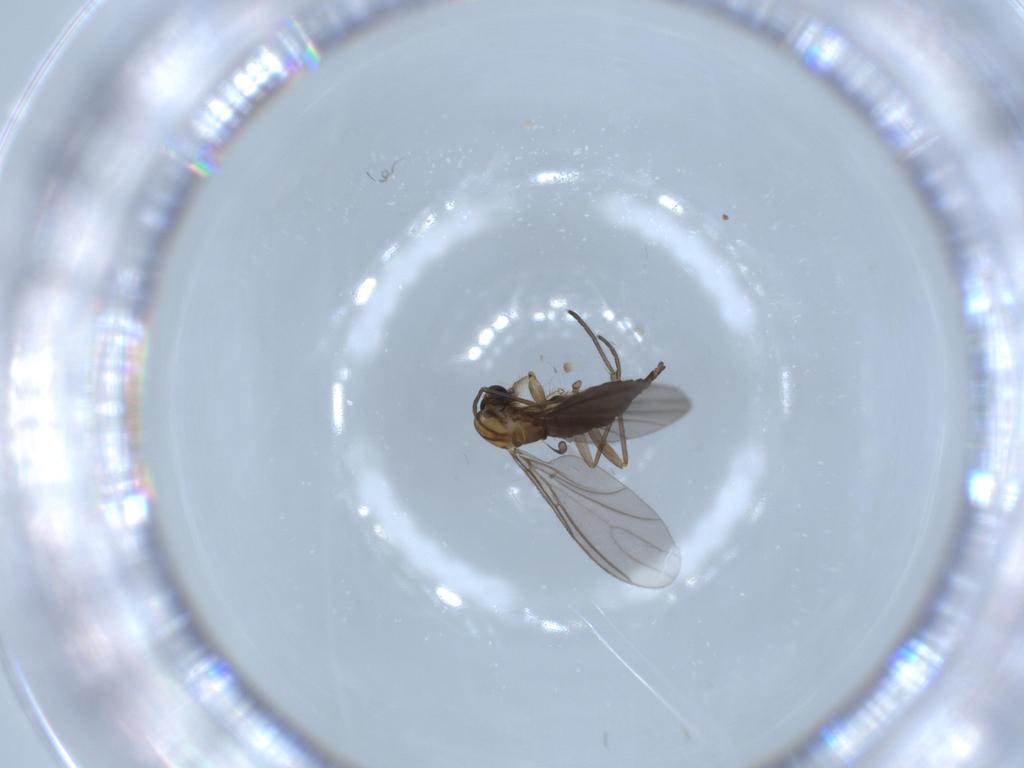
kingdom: Animalia
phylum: Arthropoda
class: Insecta
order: Diptera
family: Sciaridae
